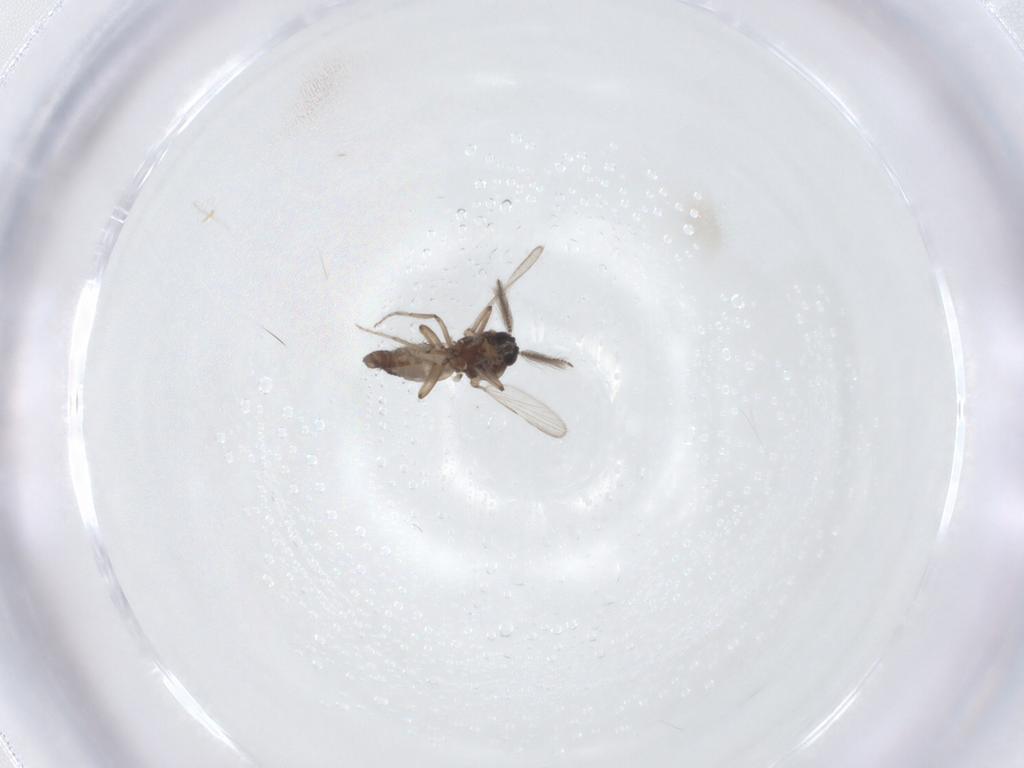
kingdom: Animalia
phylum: Arthropoda
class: Insecta
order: Diptera
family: Ceratopogonidae
